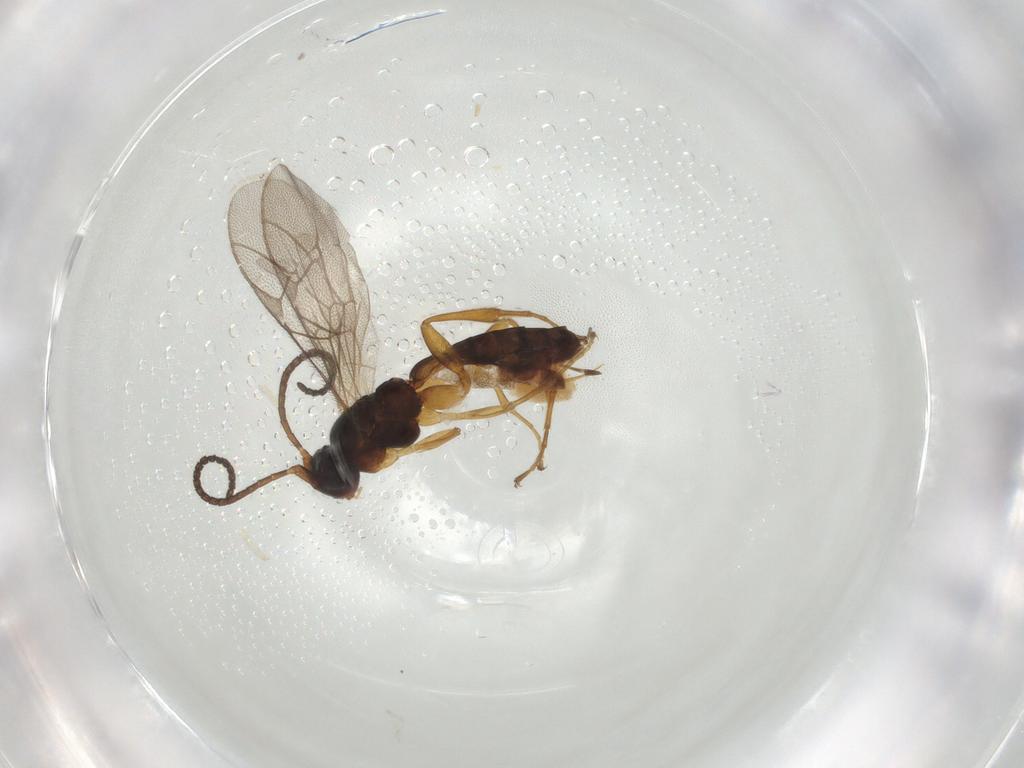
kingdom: Animalia
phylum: Arthropoda
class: Insecta
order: Hymenoptera
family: Ichneumonidae
